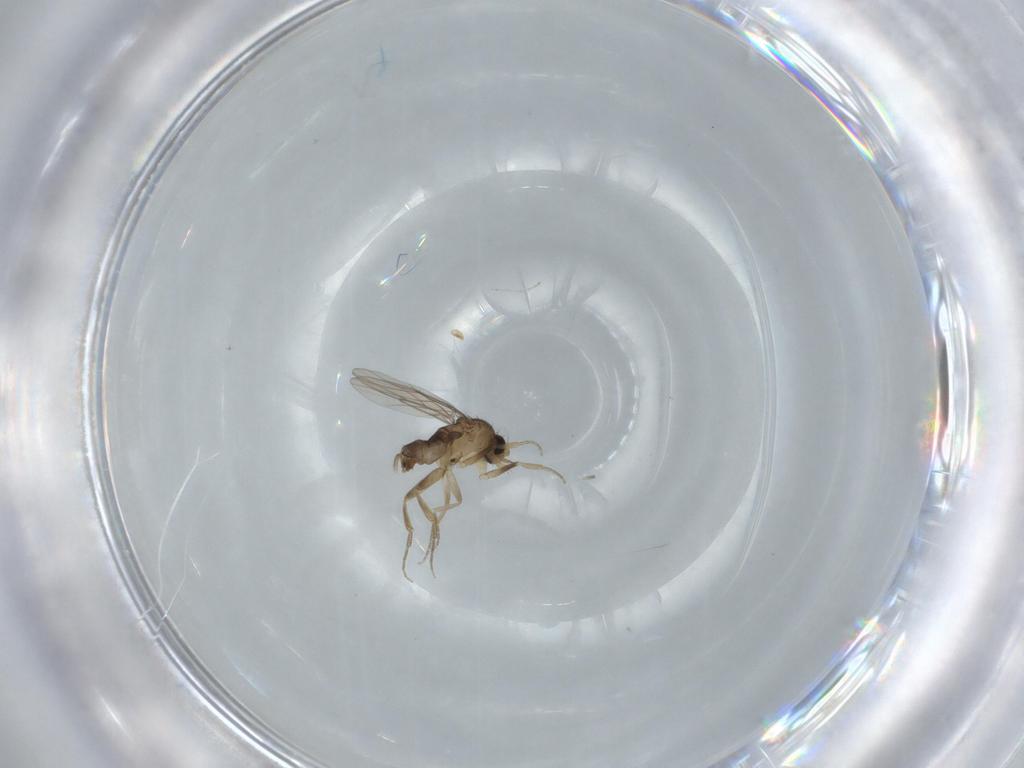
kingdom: Animalia
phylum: Arthropoda
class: Insecta
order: Diptera
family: Phoridae
